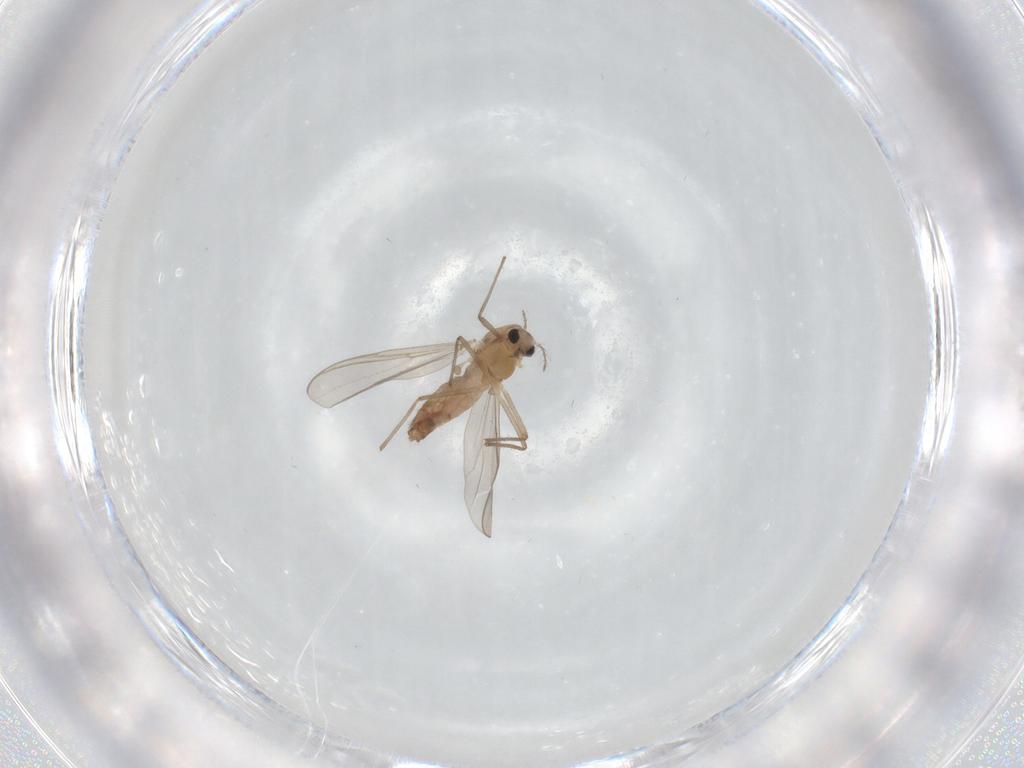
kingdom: Animalia
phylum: Arthropoda
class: Insecta
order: Diptera
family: Chironomidae
